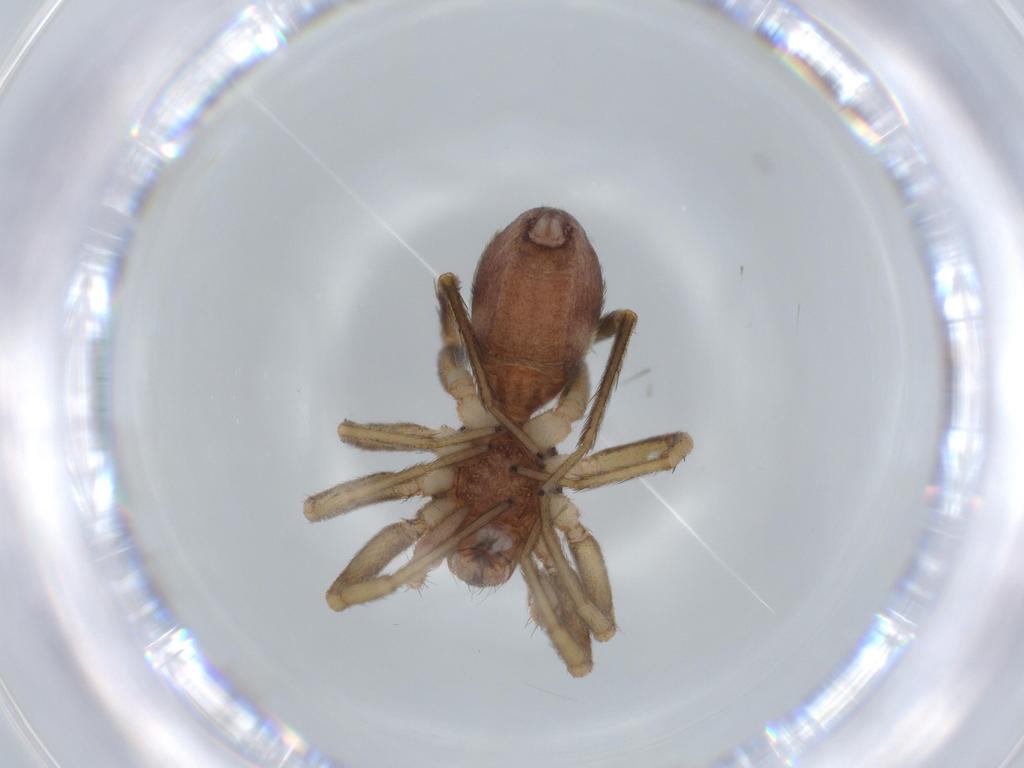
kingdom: Animalia
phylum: Arthropoda
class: Arachnida
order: Araneae
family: Corinnidae
